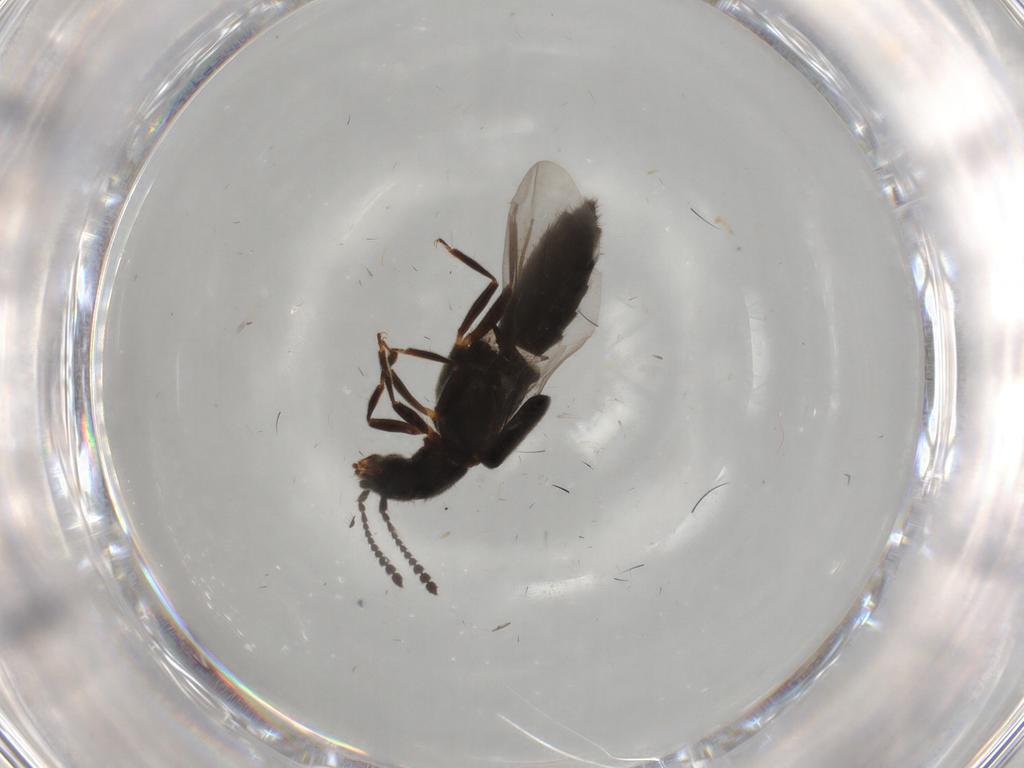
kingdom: Animalia
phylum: Arthropoda
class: Insecta
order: Coleoptera
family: Staphylinidae
